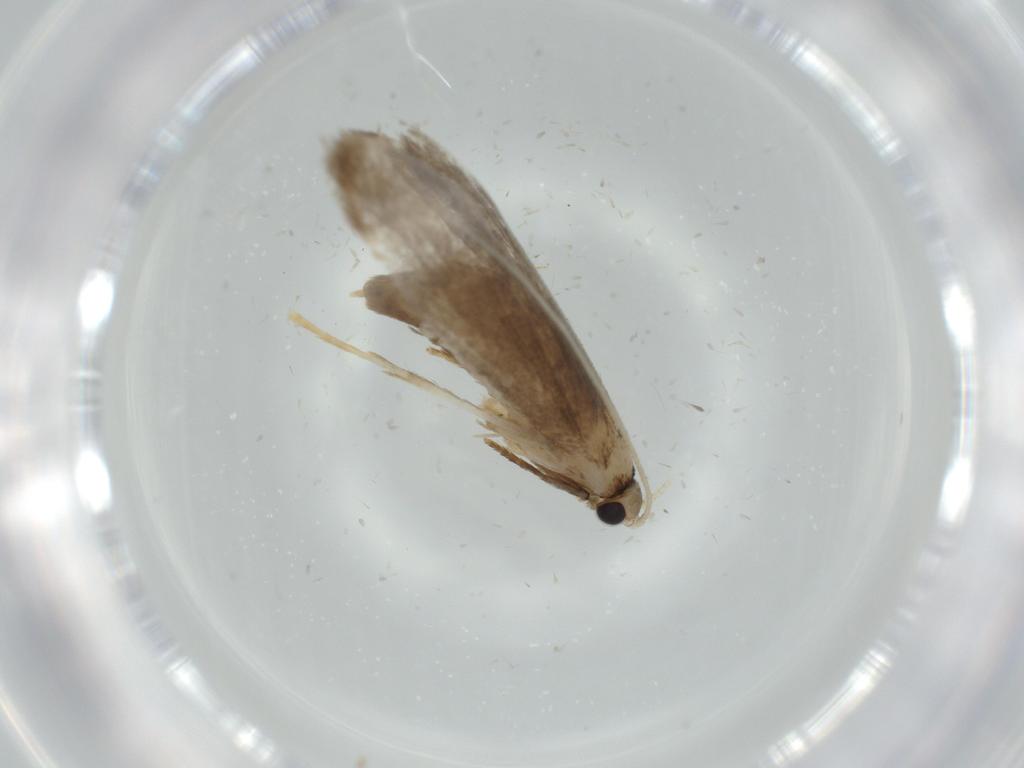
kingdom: Animalia
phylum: Arthropoda
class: Insecta
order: Lepidoptera
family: Tineidae
